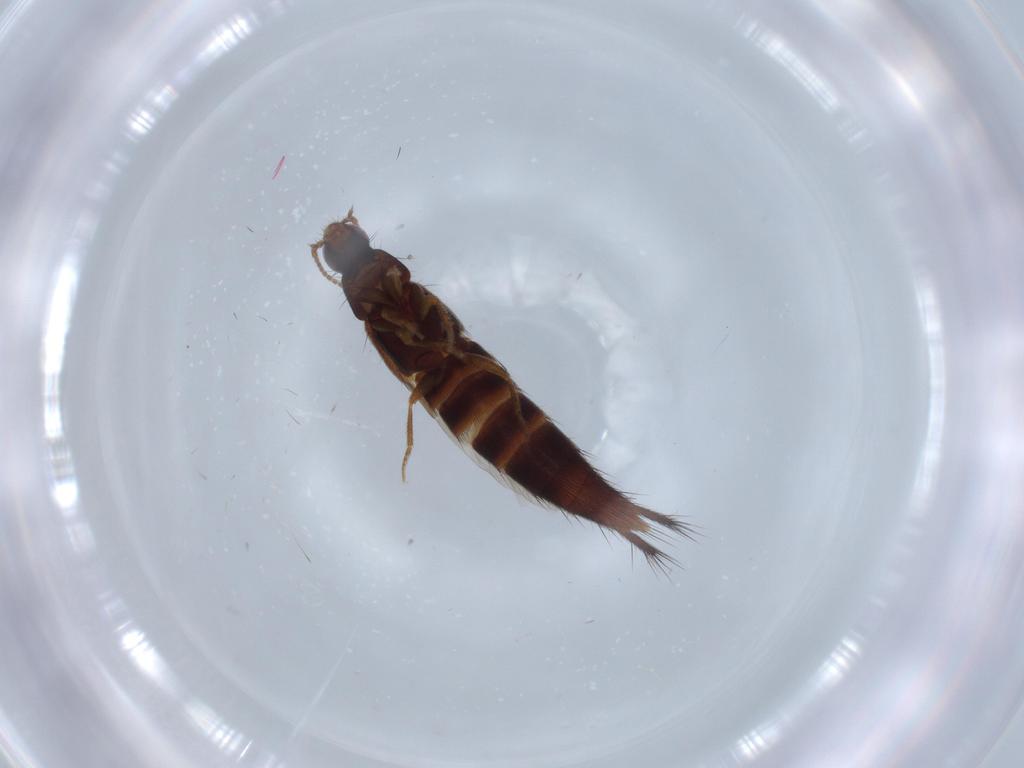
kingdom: Animalia
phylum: Arthropoda
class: Insecta
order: Coleoptera
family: Staphylinidae
